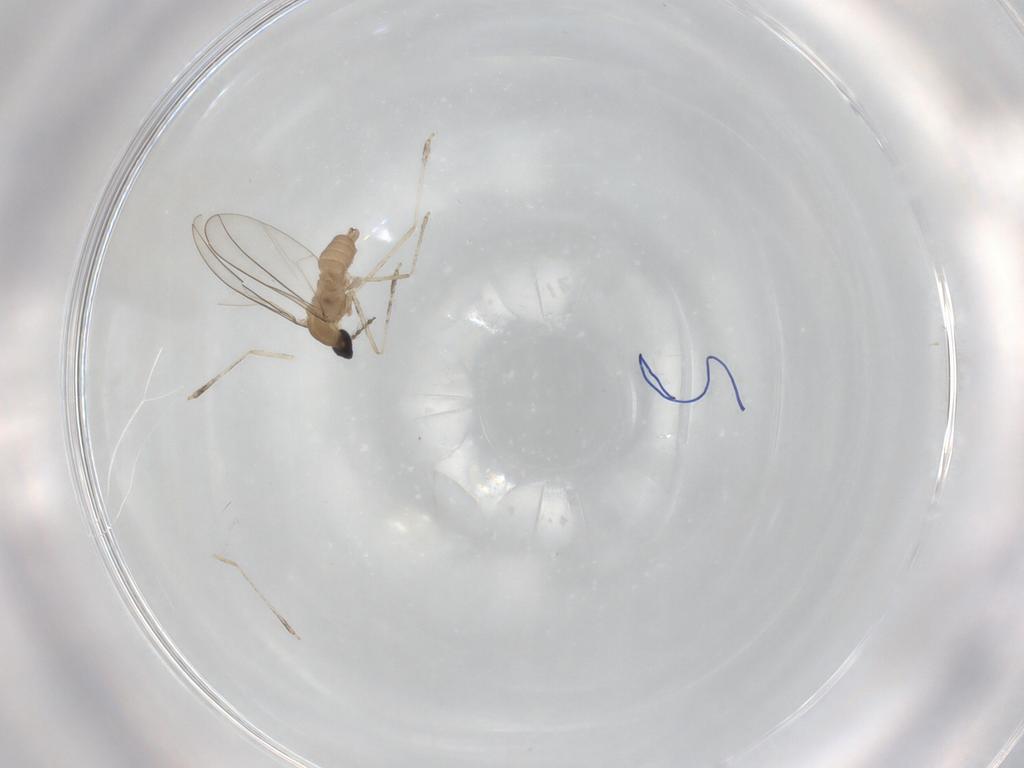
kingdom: Animalia
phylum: Arthropoda
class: Insecta
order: Diptera
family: Cecidomyiidae
